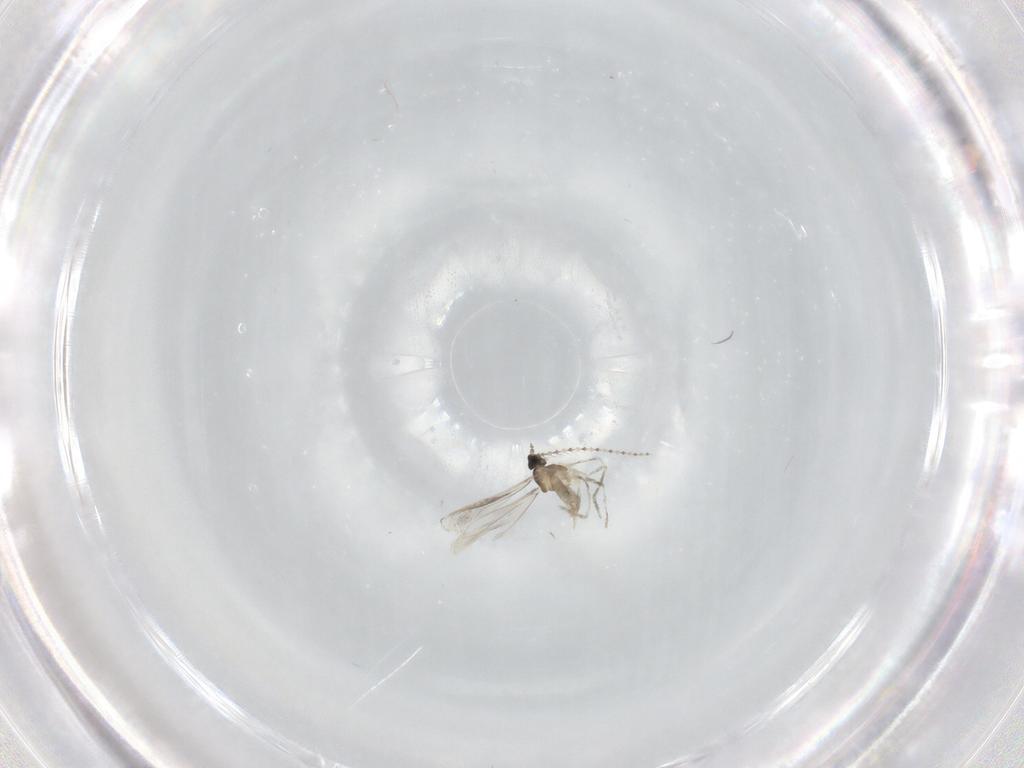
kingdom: Animalia
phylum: Arthropoda
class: Insecta
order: Diptera
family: Cecidomyiidae
